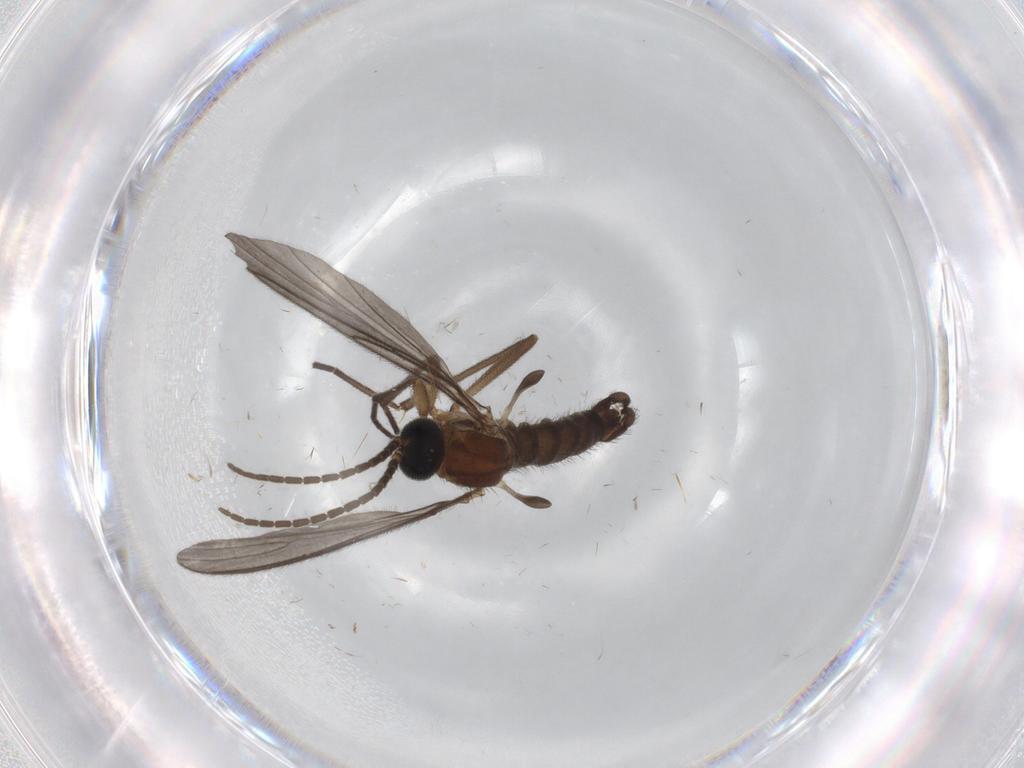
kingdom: Animalia
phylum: Arthropoda
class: Insecta
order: Diptera
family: Sciaridae
